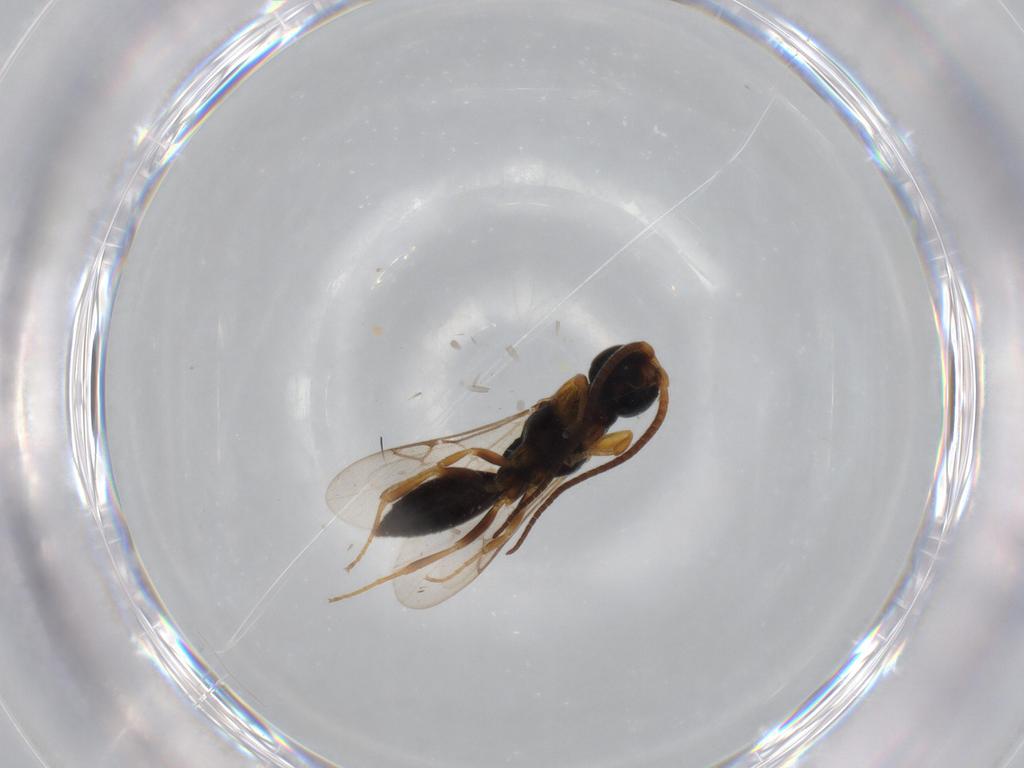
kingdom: Animalia
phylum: Arthropoda
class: Insecta
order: Hymenoptera
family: Sclerogibbidae
